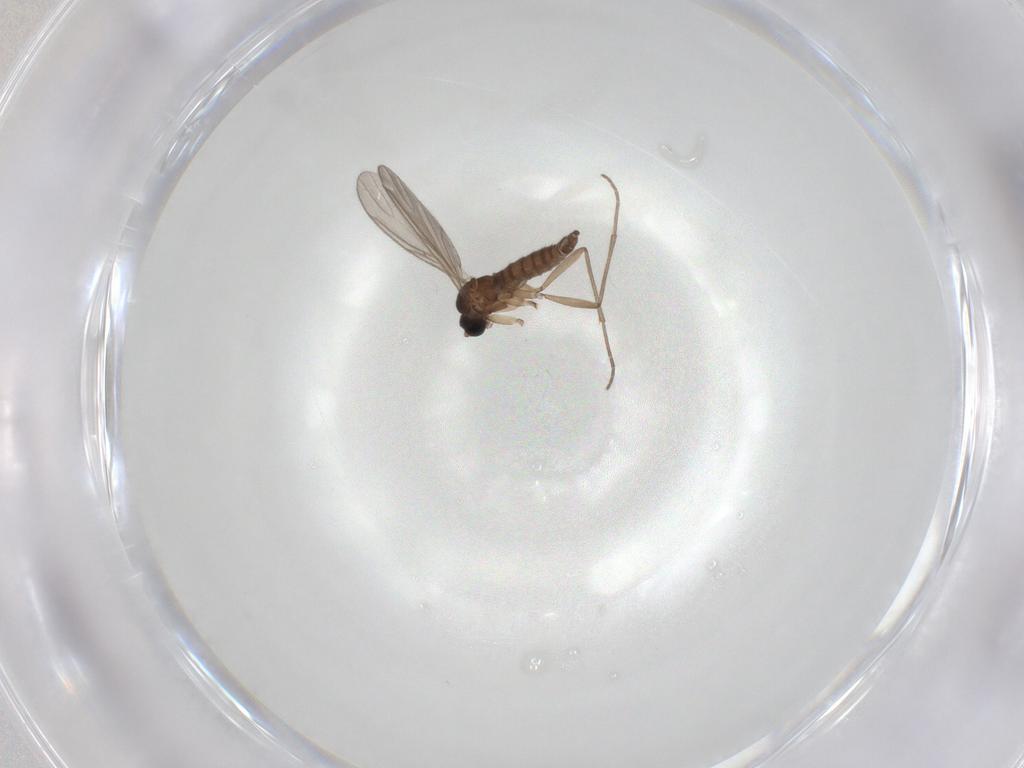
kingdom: Animalia
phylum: Arthropoda
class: Insecta
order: Diptera
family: Sciaridae
